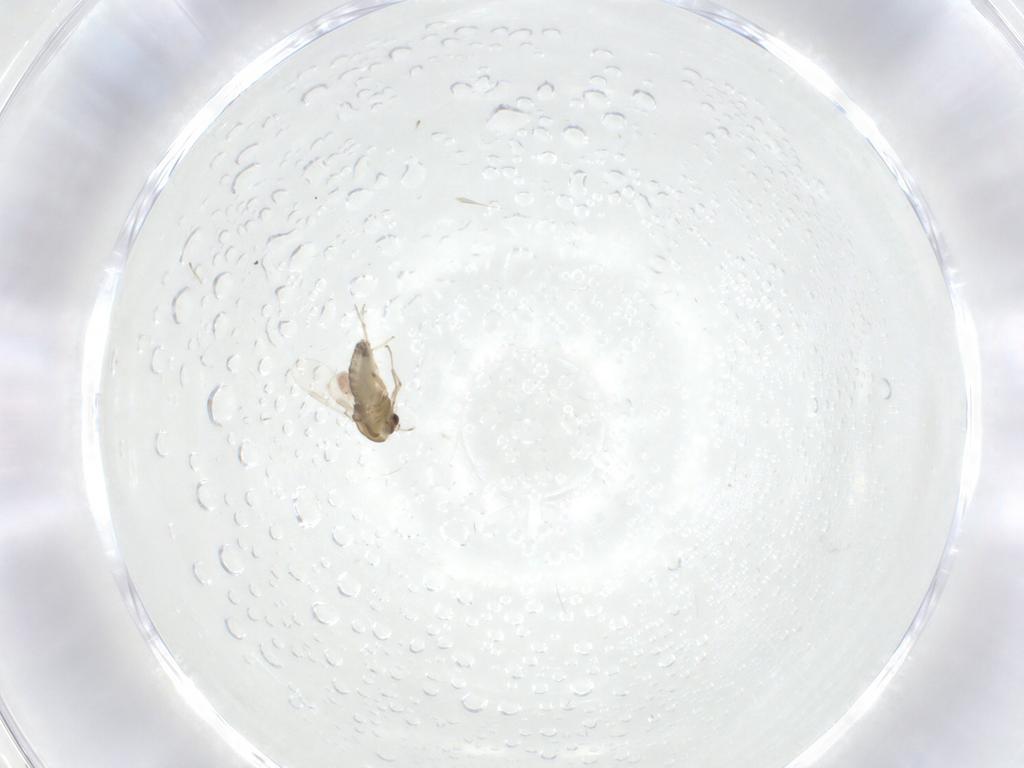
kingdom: Animalia
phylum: Arthropoda
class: Insecta
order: Diptera
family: Chironomidae
